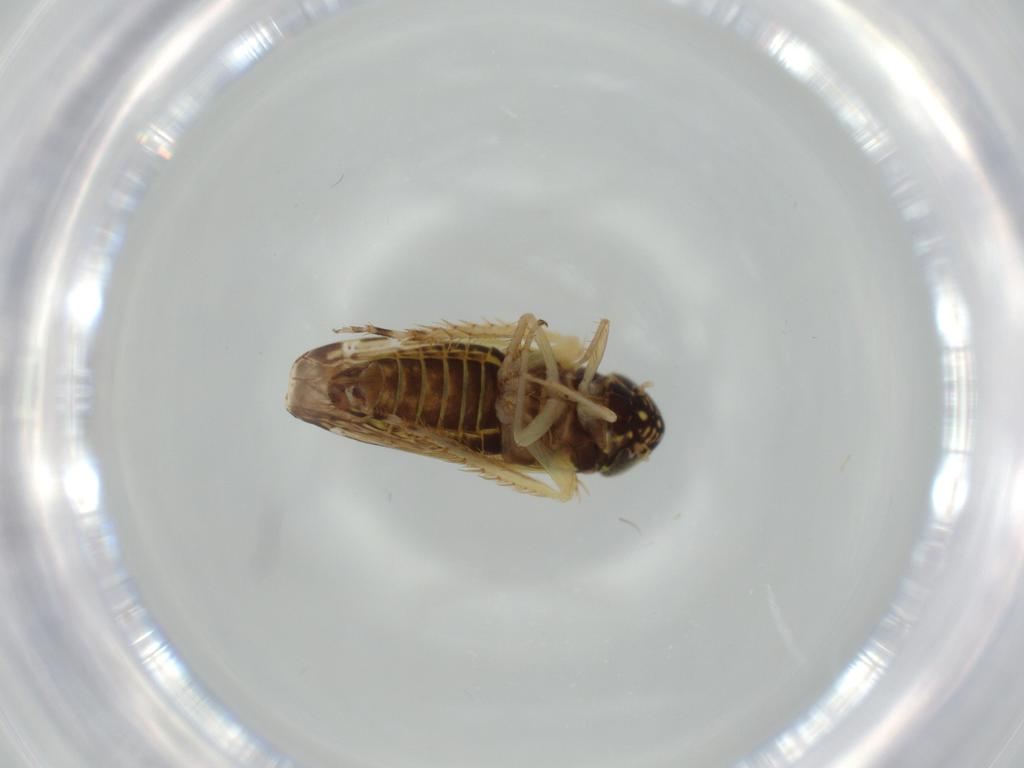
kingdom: Animalia
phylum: Arthropoda
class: Insecta
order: Hemiptera
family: Cicadellidae
